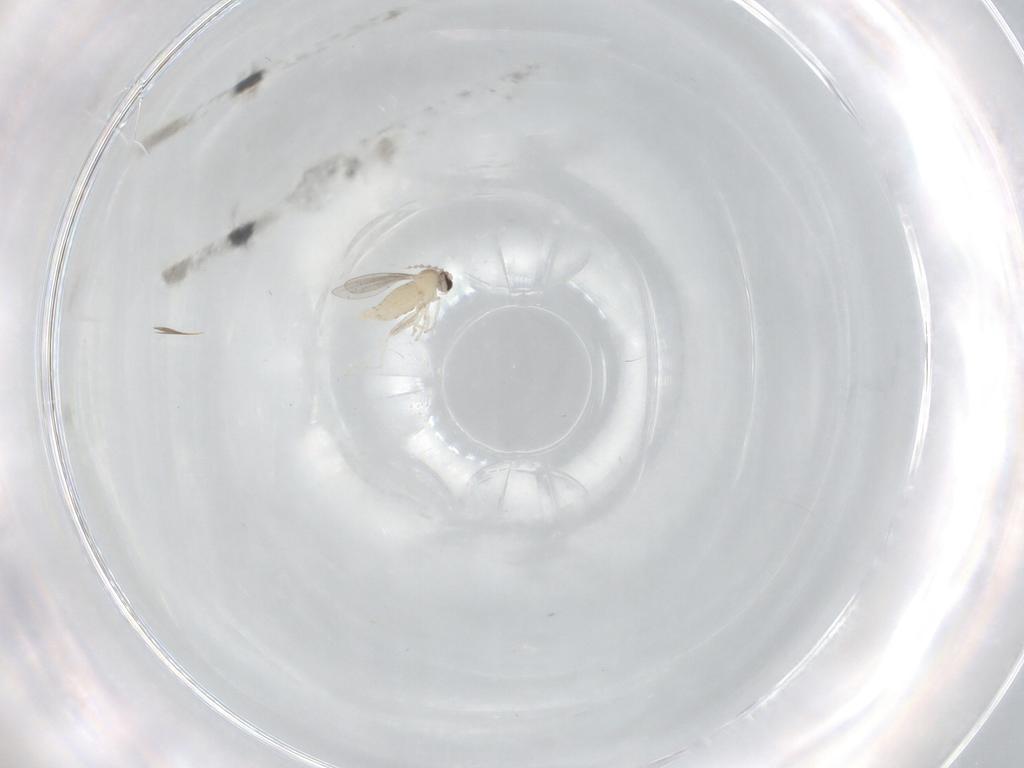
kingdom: Animalia
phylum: Arthropoda
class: Insecta
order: Diptera
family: Cecidomyiidae
